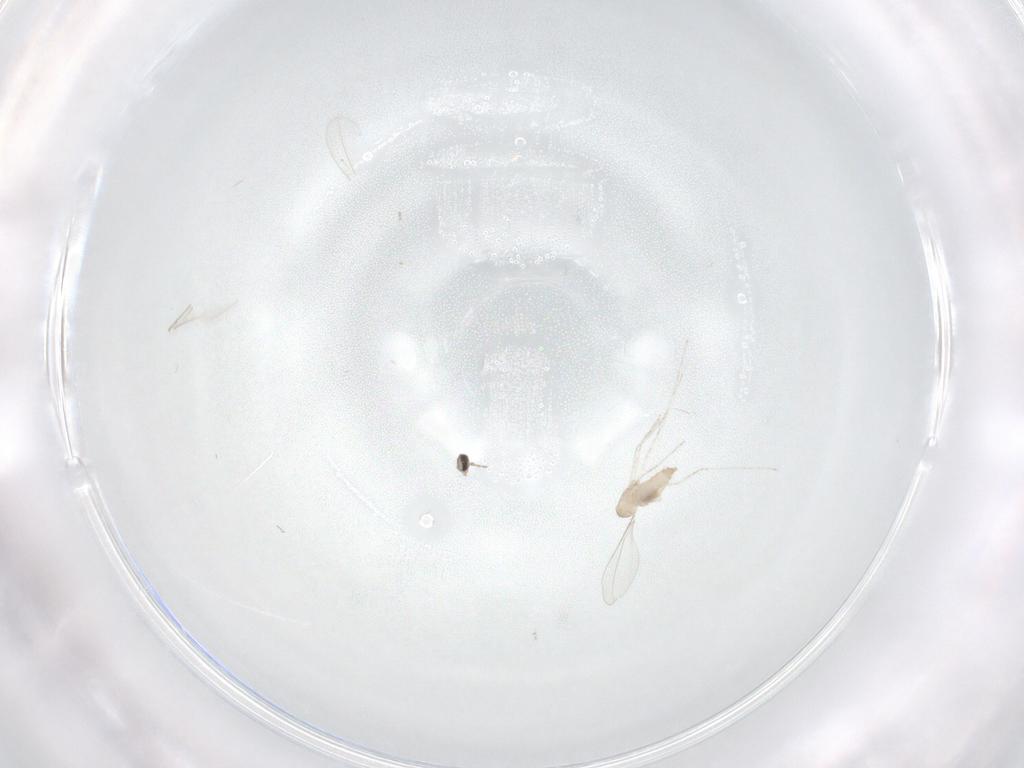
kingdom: Animalia
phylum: Arthropoda
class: Insecta
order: Diptera
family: Cecidomyiidae
